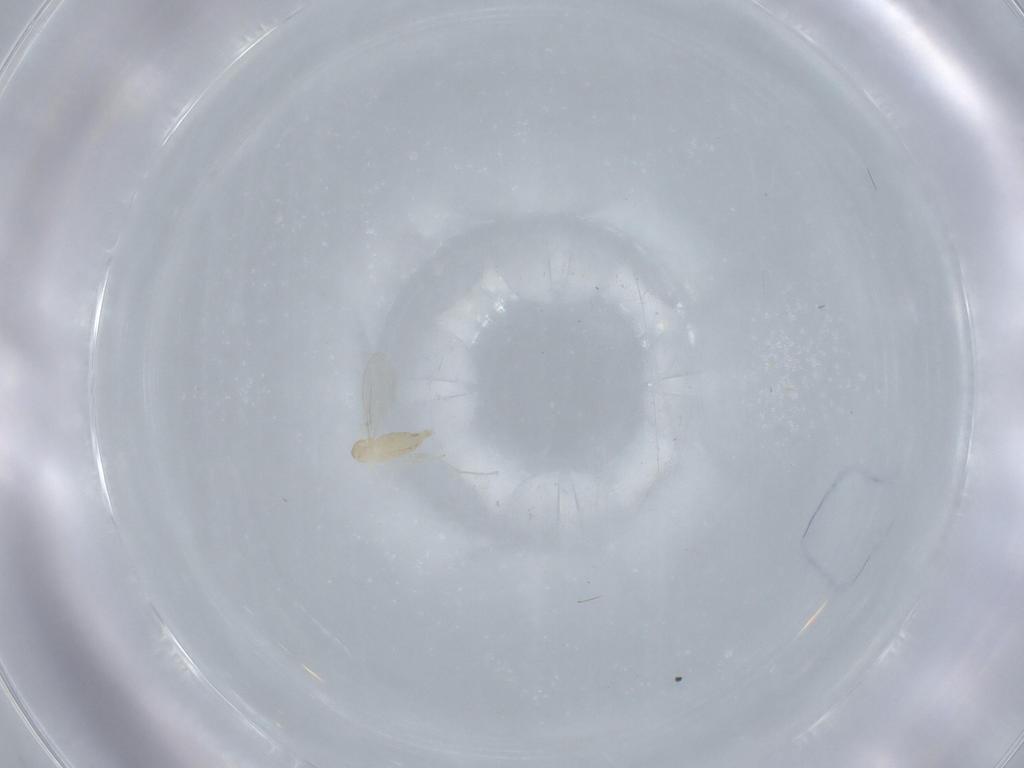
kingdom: Animalia
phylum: Arthropoda
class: Insecta
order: Diptera
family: Cecidomyiidae
